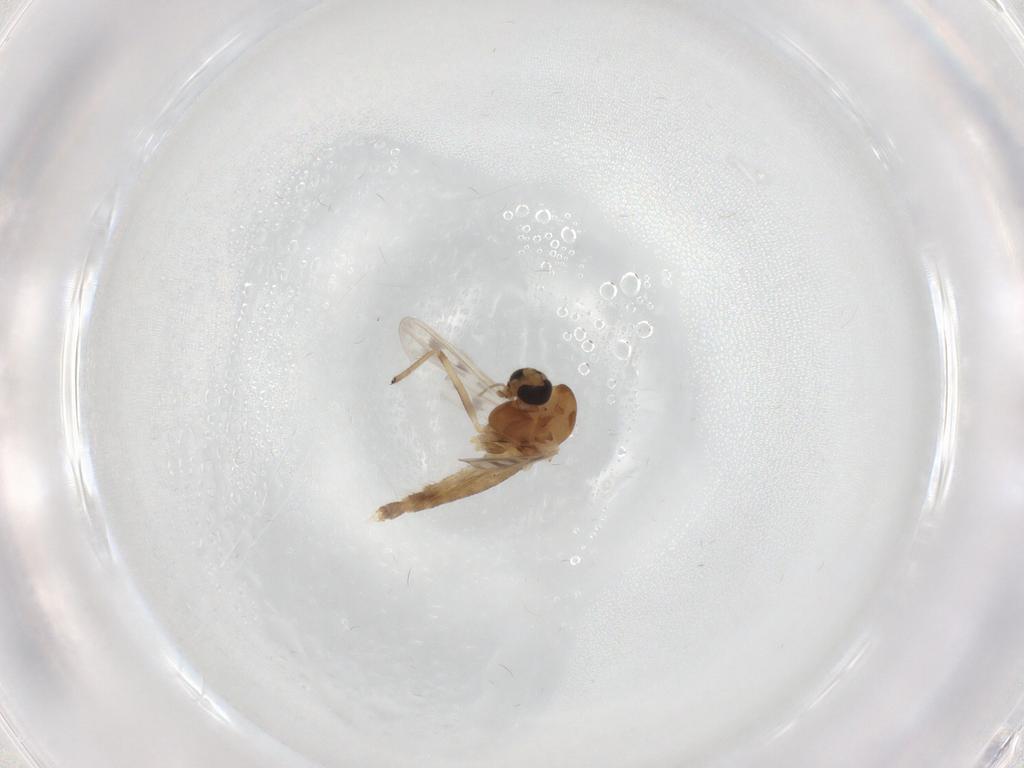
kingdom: Animalia
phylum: Arthropoda
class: Insecta
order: Diptera
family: Chironomidae
